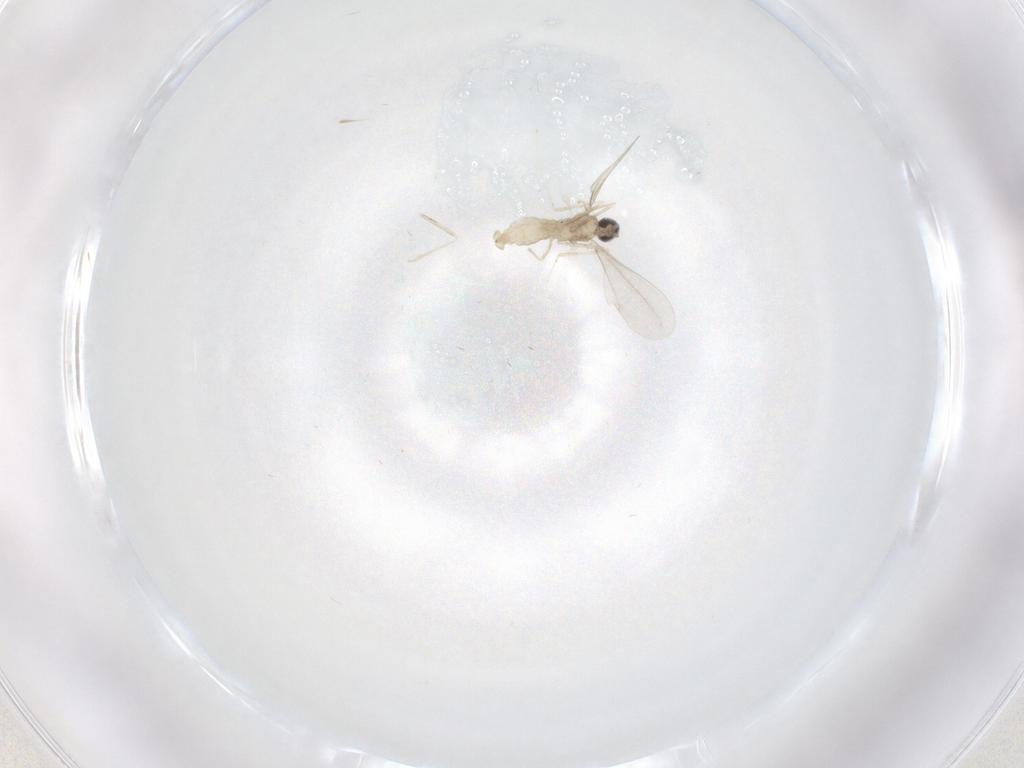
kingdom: Animalia
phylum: Arthropoda
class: Insecta
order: Diptera
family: Cecidomyiidae
